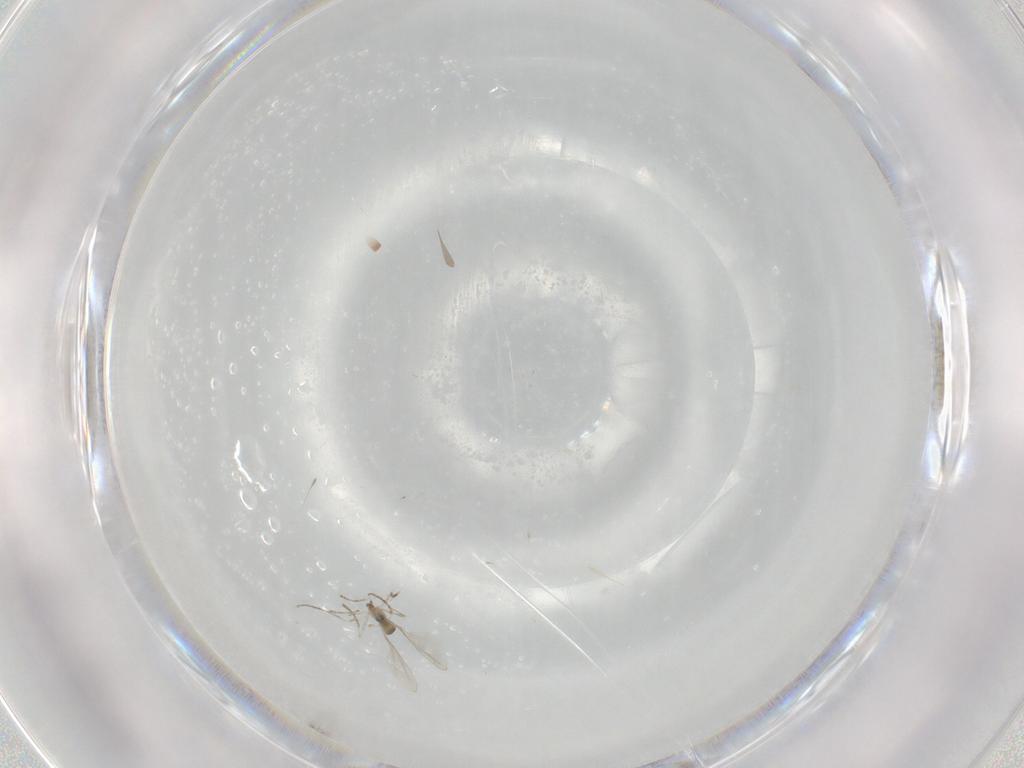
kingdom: Animalia
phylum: Arthropoda
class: Insecta
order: Diptera
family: Cecidomyiidae
